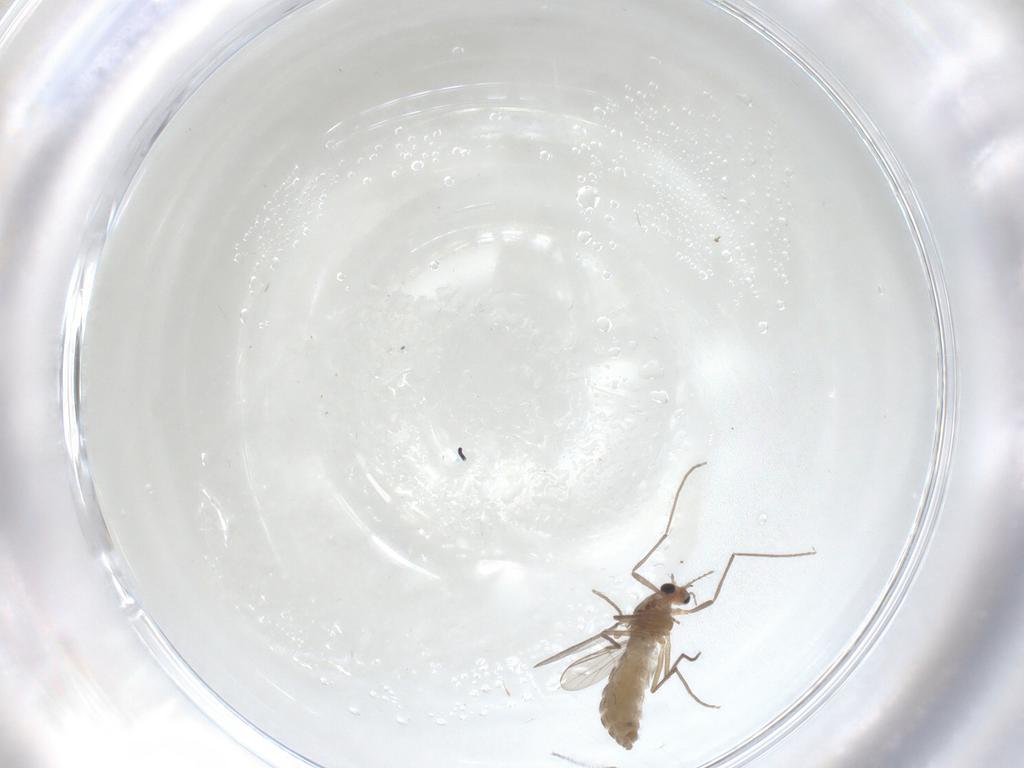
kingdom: Animalia
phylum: Arthropoda
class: Insecta
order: Diptera
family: Chironomidae
